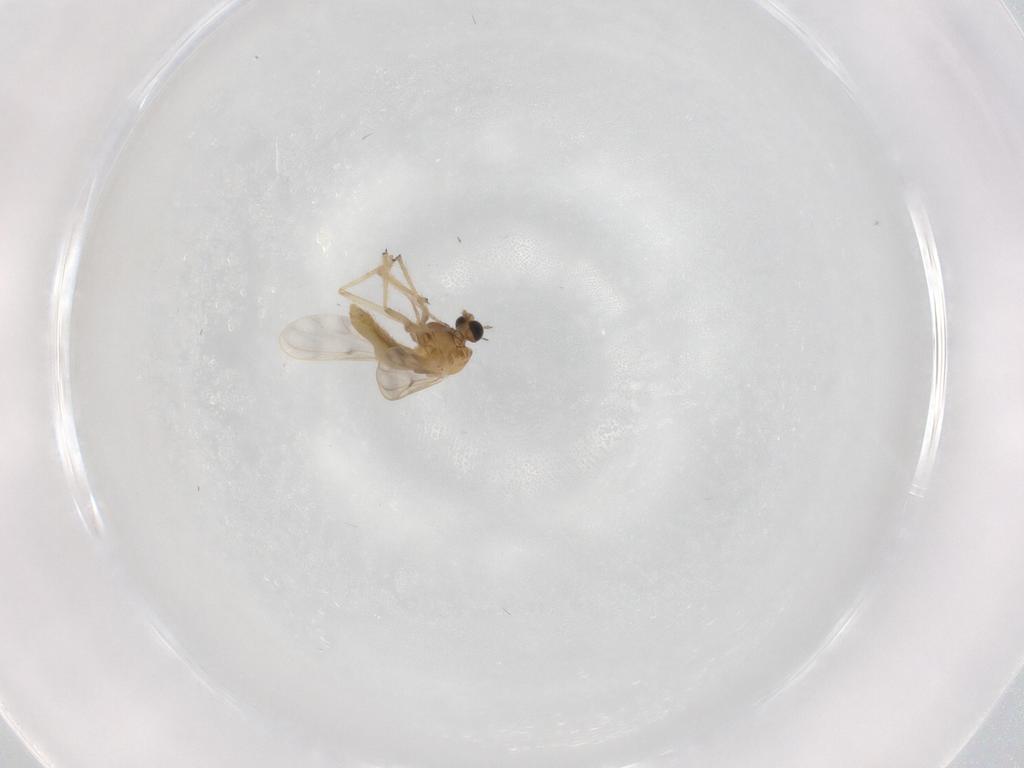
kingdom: Animalia
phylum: Arthropoda
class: Insecta
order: Diptera
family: Chironomidae
